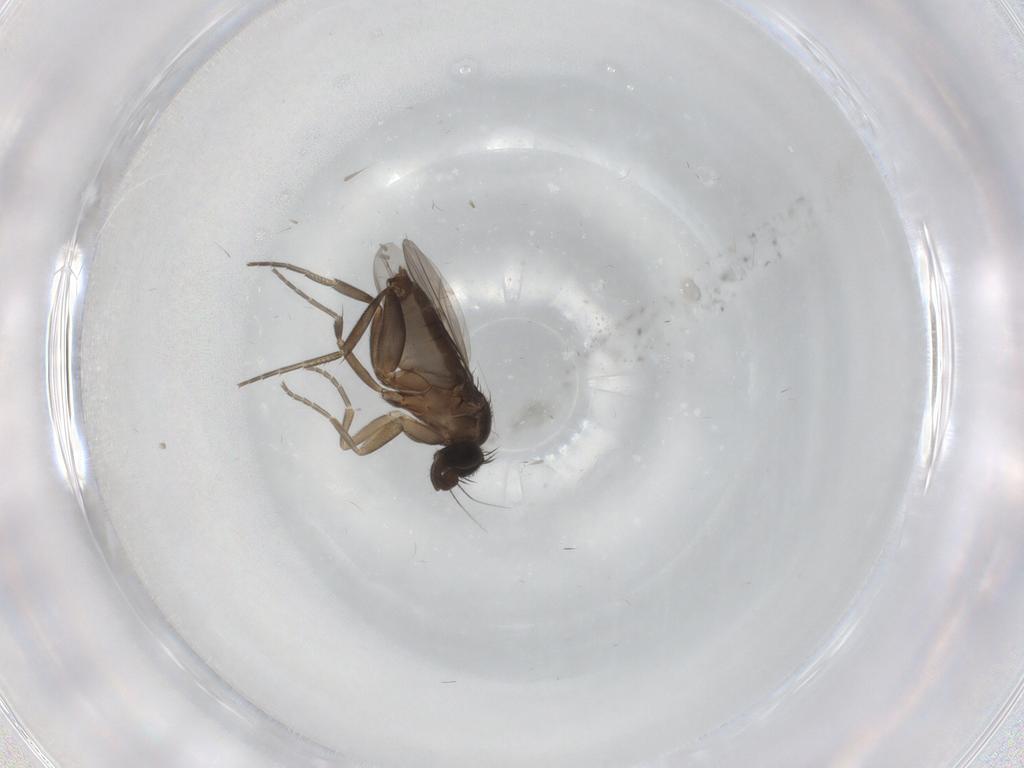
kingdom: Animalia
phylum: Arthropoda
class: Insecta
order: Diptera
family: Phoridae
